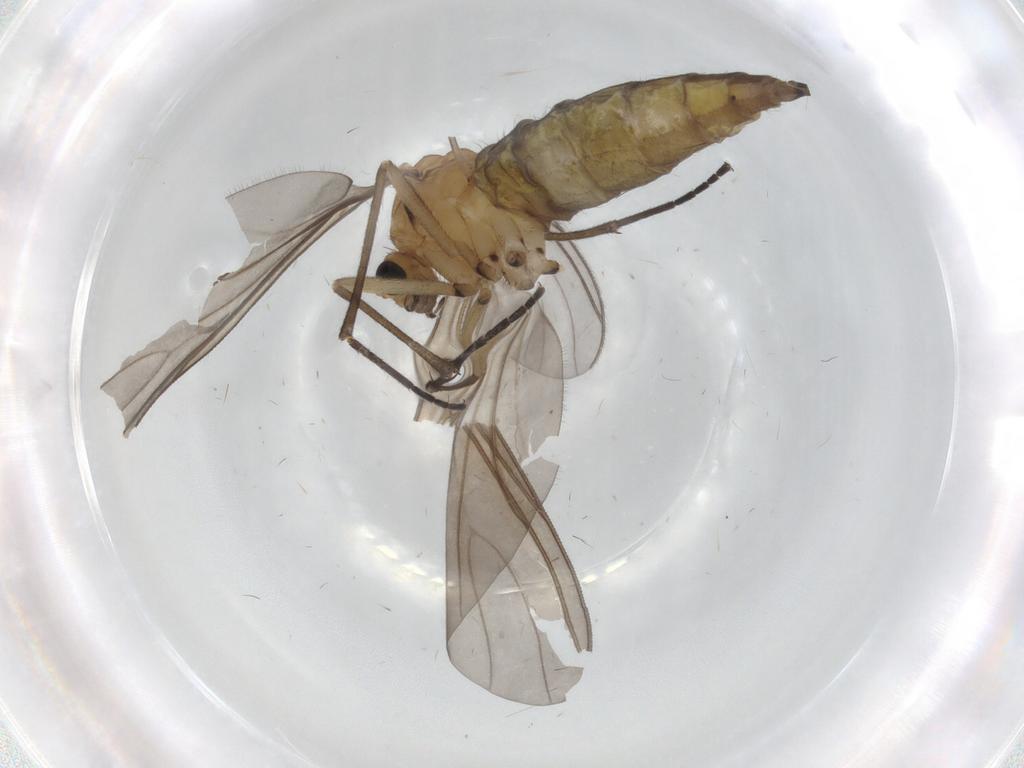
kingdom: Animalia
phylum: Arthropoda
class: Insecta
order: Diptera
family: Sciaridae
